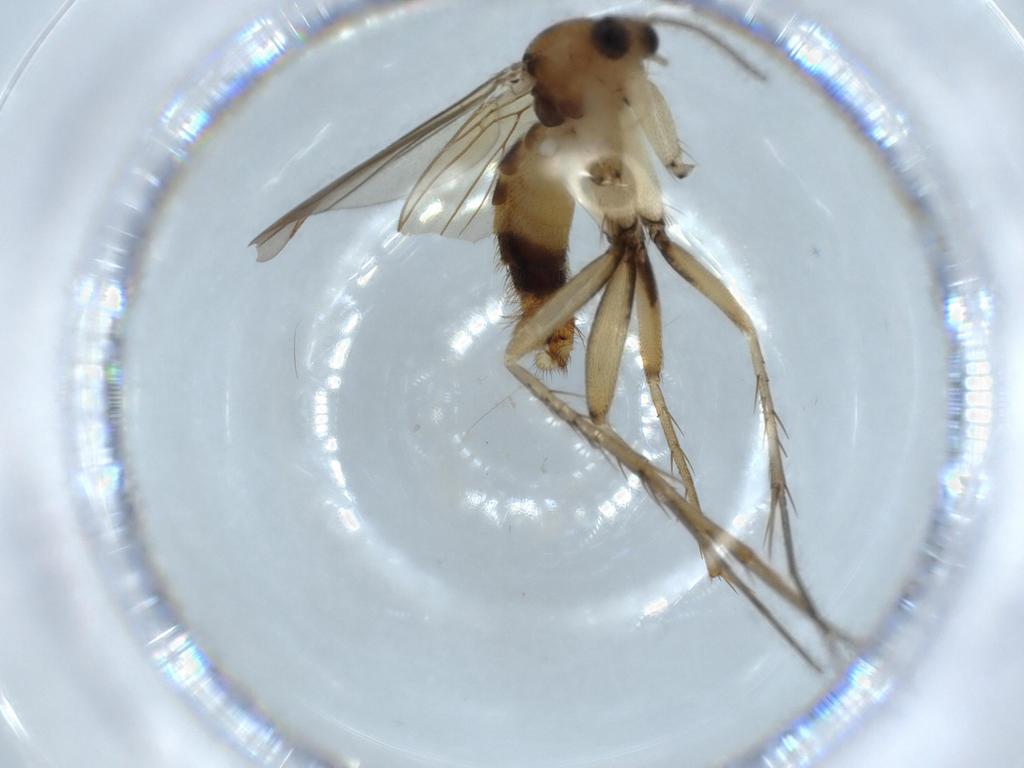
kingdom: Animalia
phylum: Arthropoda
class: Insecta
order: Diptera
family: Mycetophilidae
